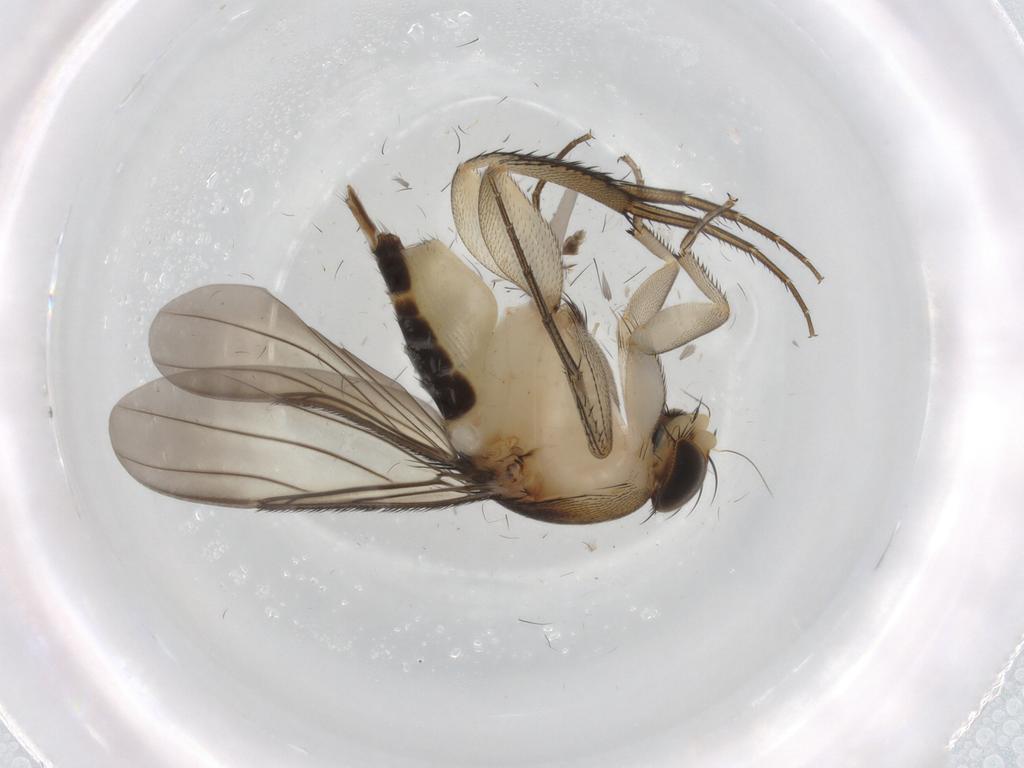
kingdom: Animalia
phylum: Arthropoda
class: Insecta
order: Diptera
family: Phoridae
